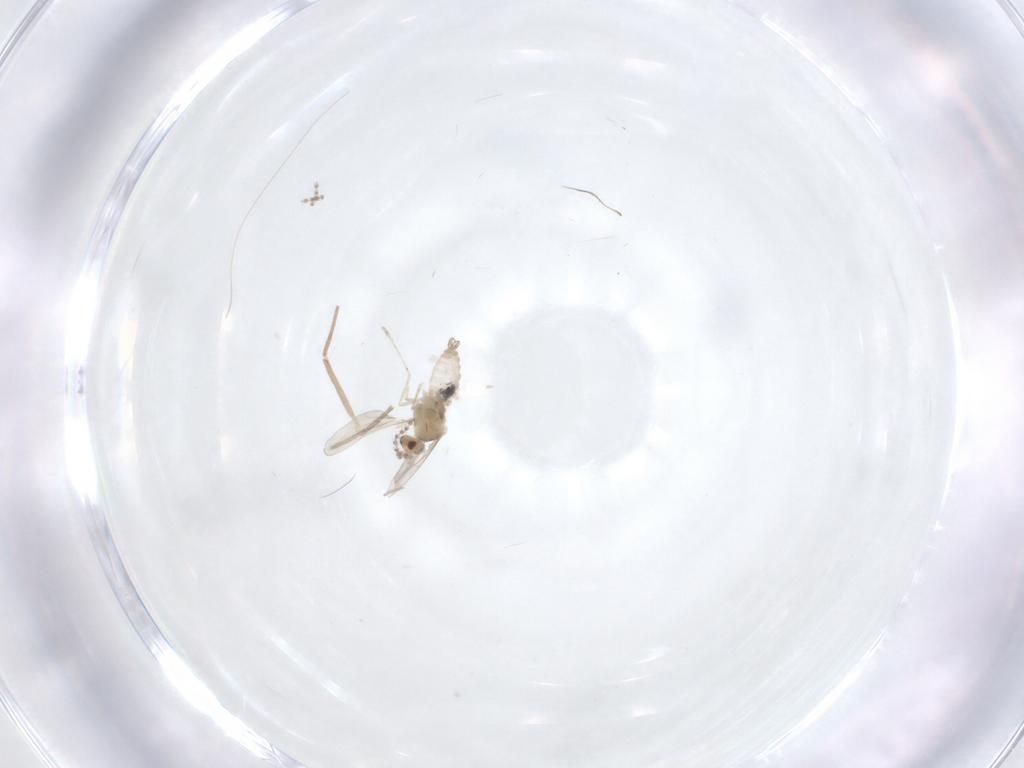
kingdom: Animalia
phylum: Arthropoda
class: Insecta
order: Diptera
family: Cecidomyiidae
